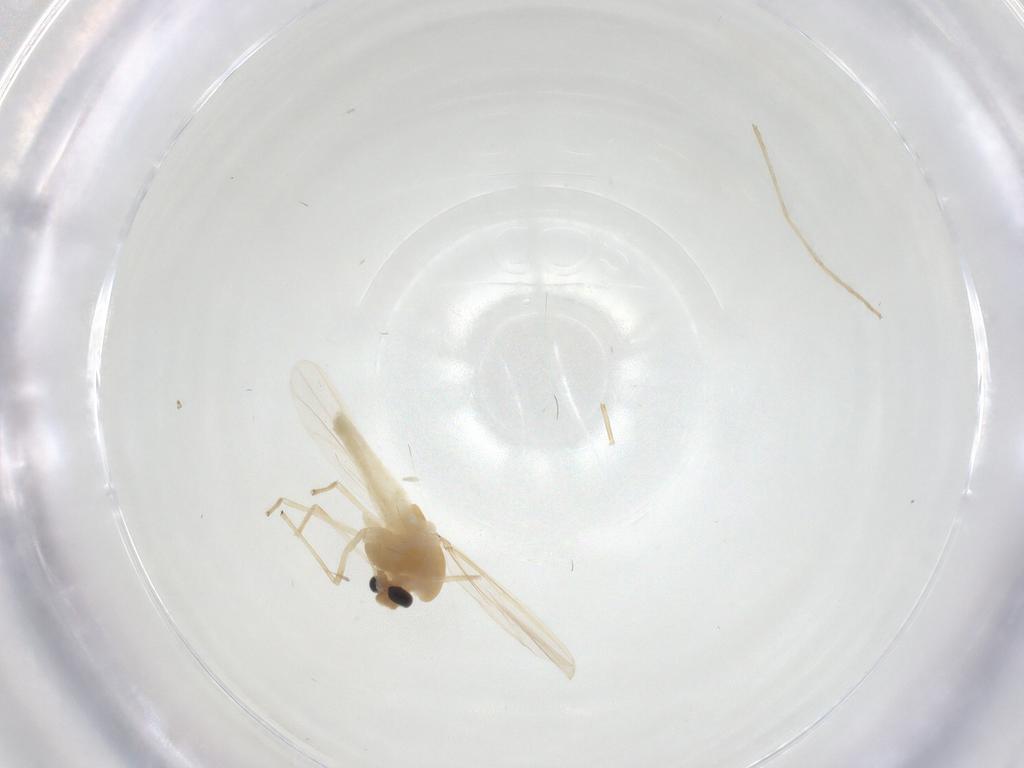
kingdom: Animalia
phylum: Arthropoda
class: Insecta
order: Diptera
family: Chironomidae
